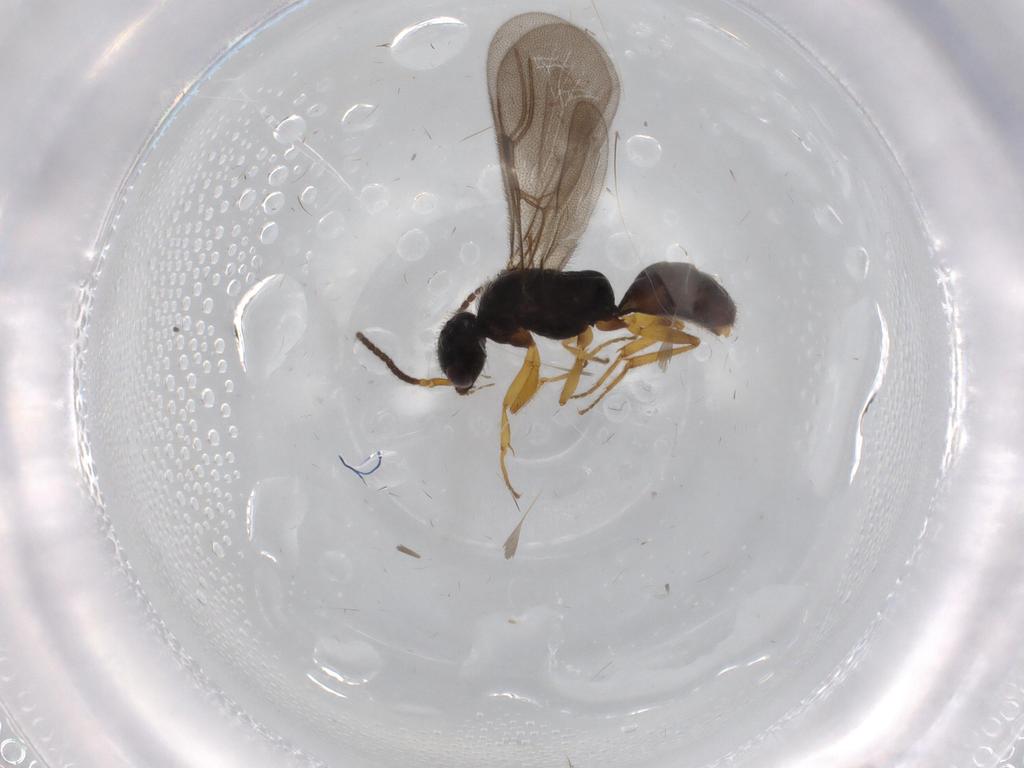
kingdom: Animalia
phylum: Arthropoda
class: Insecta
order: Hymenoptera
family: Bethylidae
